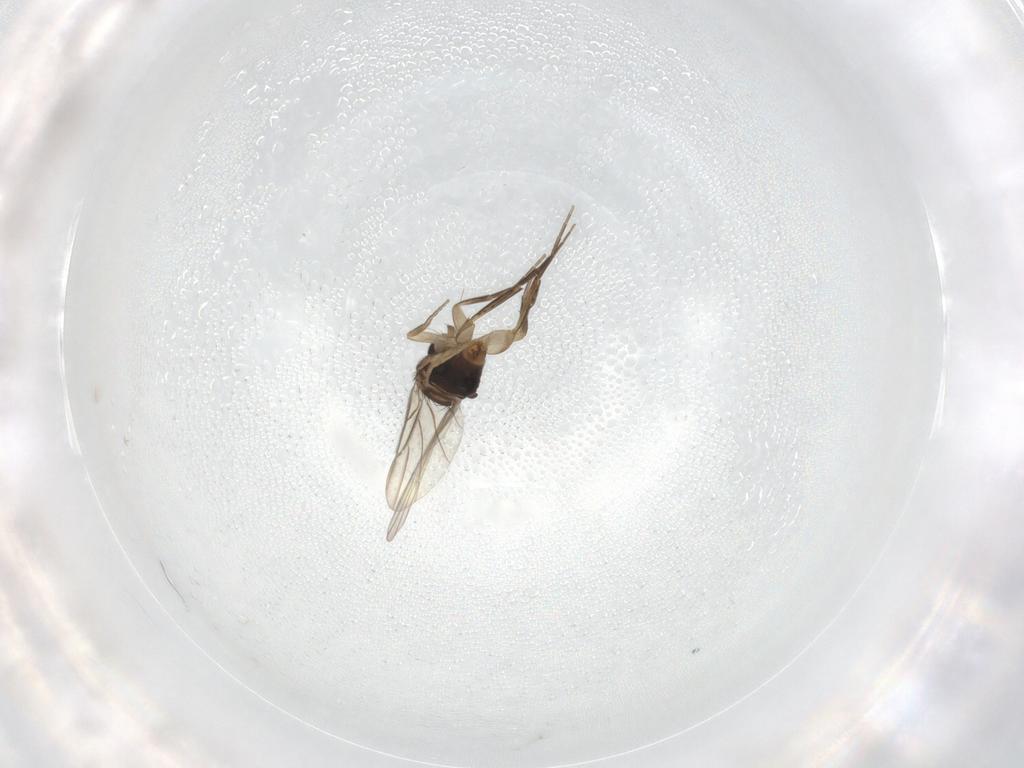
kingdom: Animalia
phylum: Arthropoda
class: Insecta
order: Diptera
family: Phoridae
